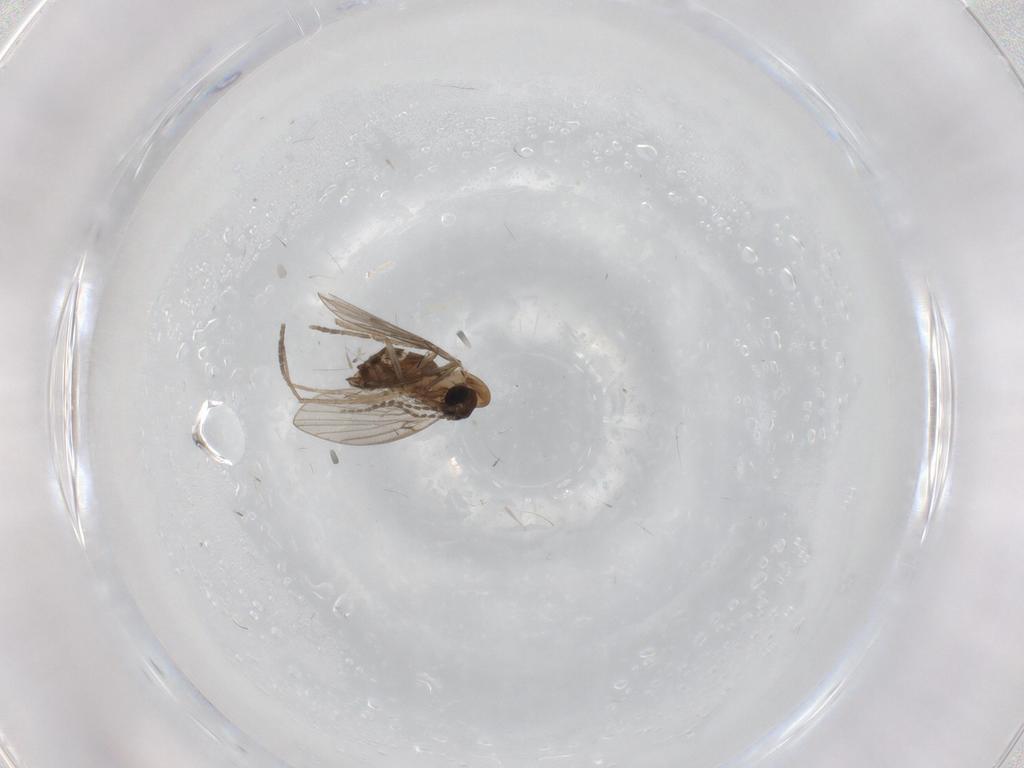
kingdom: Animalia
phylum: Arthropoda
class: Insecta
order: Diptera
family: Psychodidae
